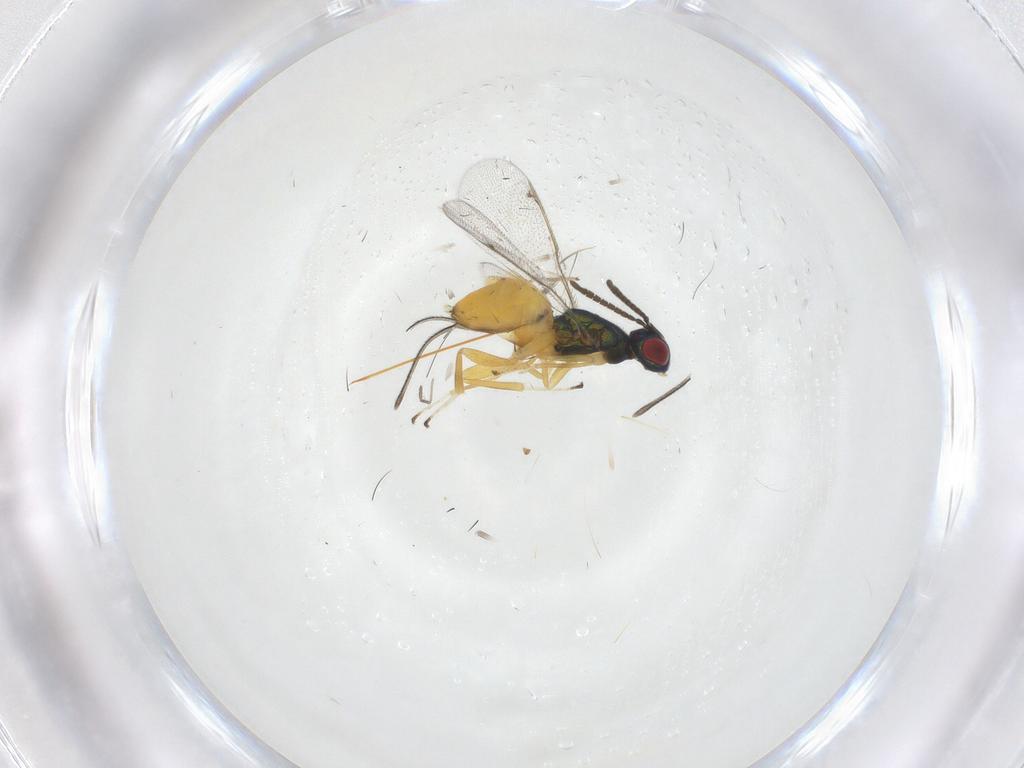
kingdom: Animalia
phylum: Arthropoda
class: Insecta
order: Hymenoptera
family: Torymidae
